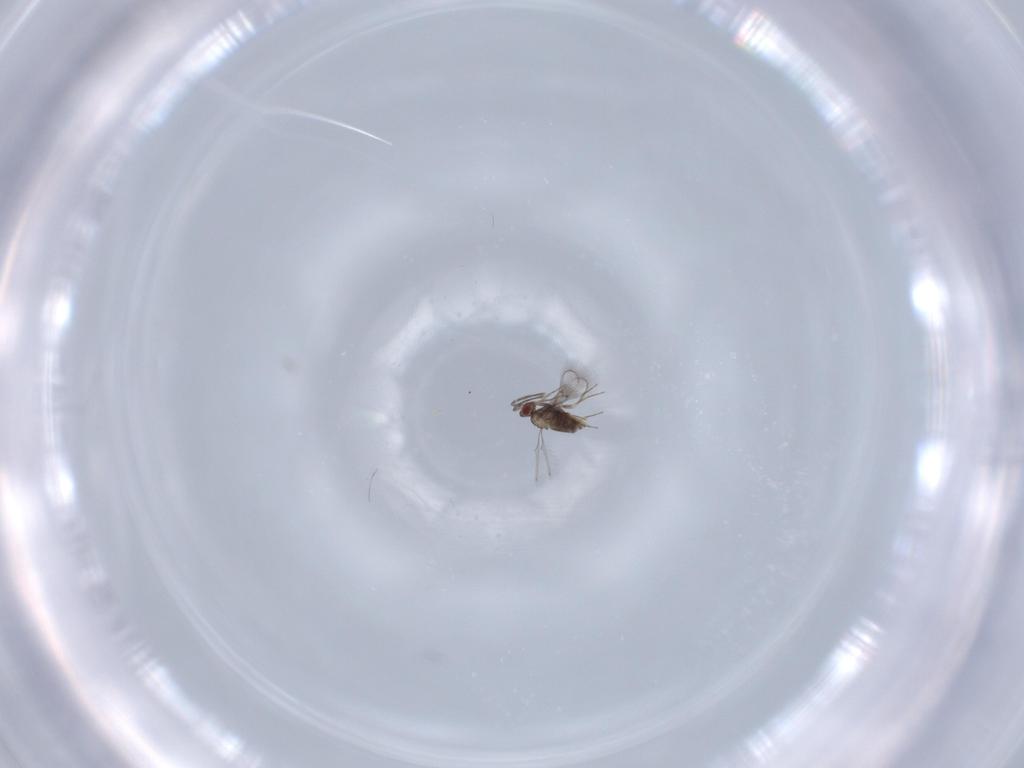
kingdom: Animalia
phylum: Arthropoda
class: Insecta
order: Hymenoptera
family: Trichogrammatidae
